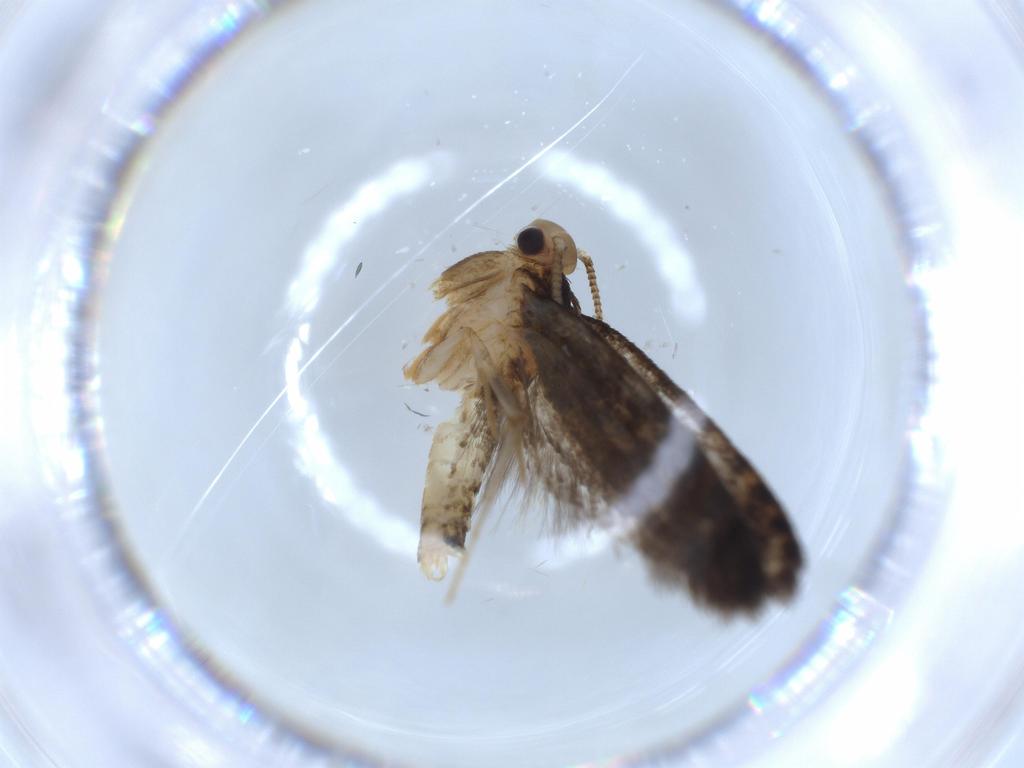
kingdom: Animalia
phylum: Arthropoda
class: Insecta
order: Lepidoptera
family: Tineidae
